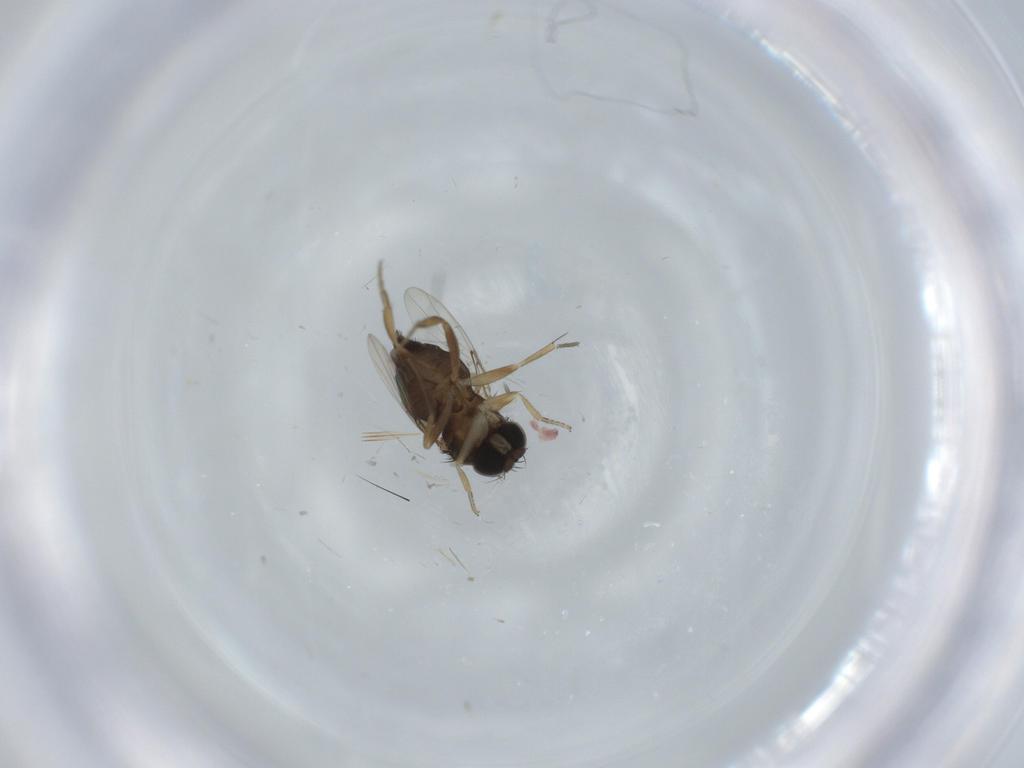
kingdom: Animalia
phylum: Arthropoda
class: Insecta
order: Diptera
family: Phoridae
